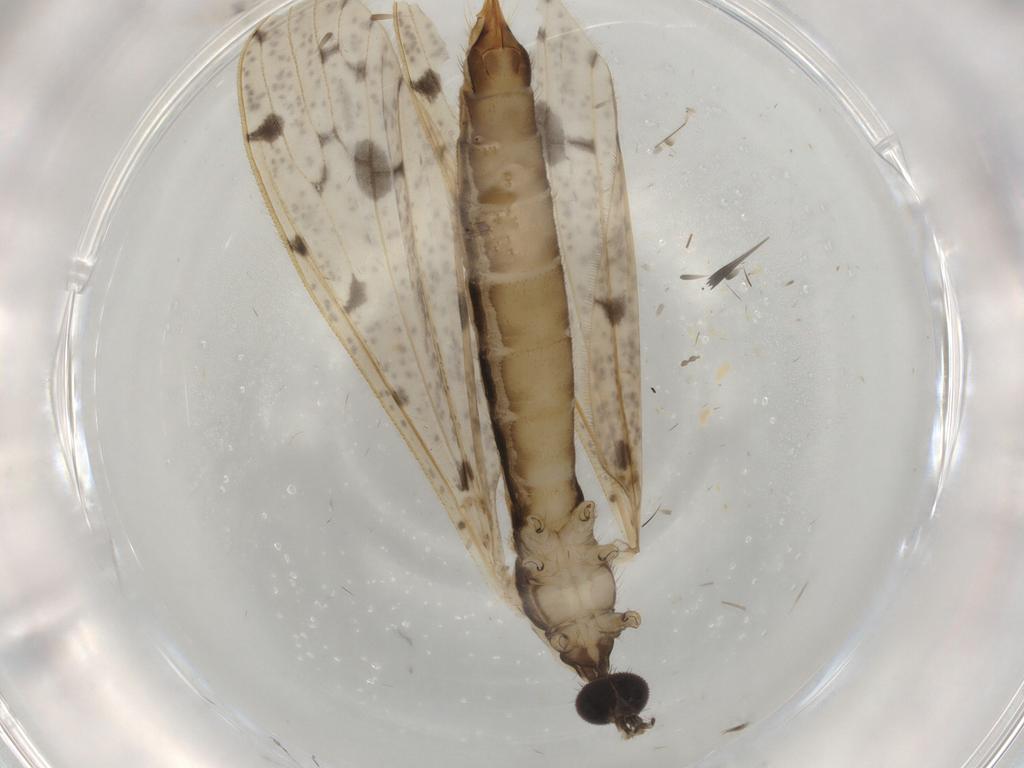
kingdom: Animalia
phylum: Arthropoda
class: Insecta
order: Diptera
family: Limoniidae
